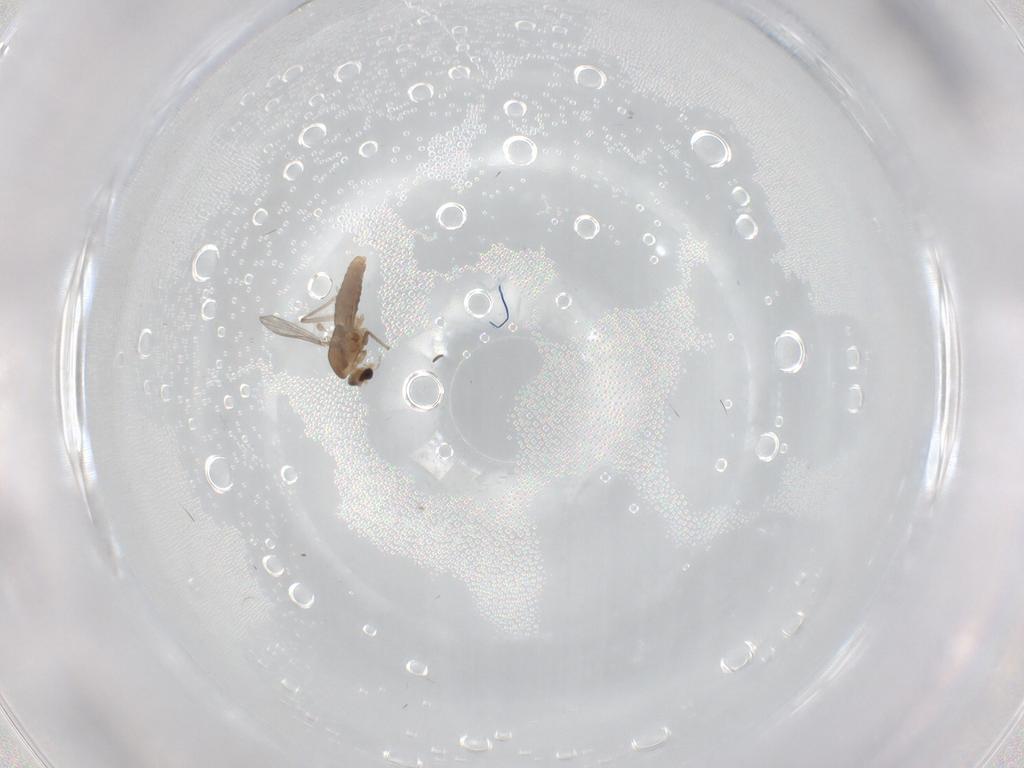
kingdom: Animalia
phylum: Arthropoda
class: Insecta
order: Diptera
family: Chironomidae
